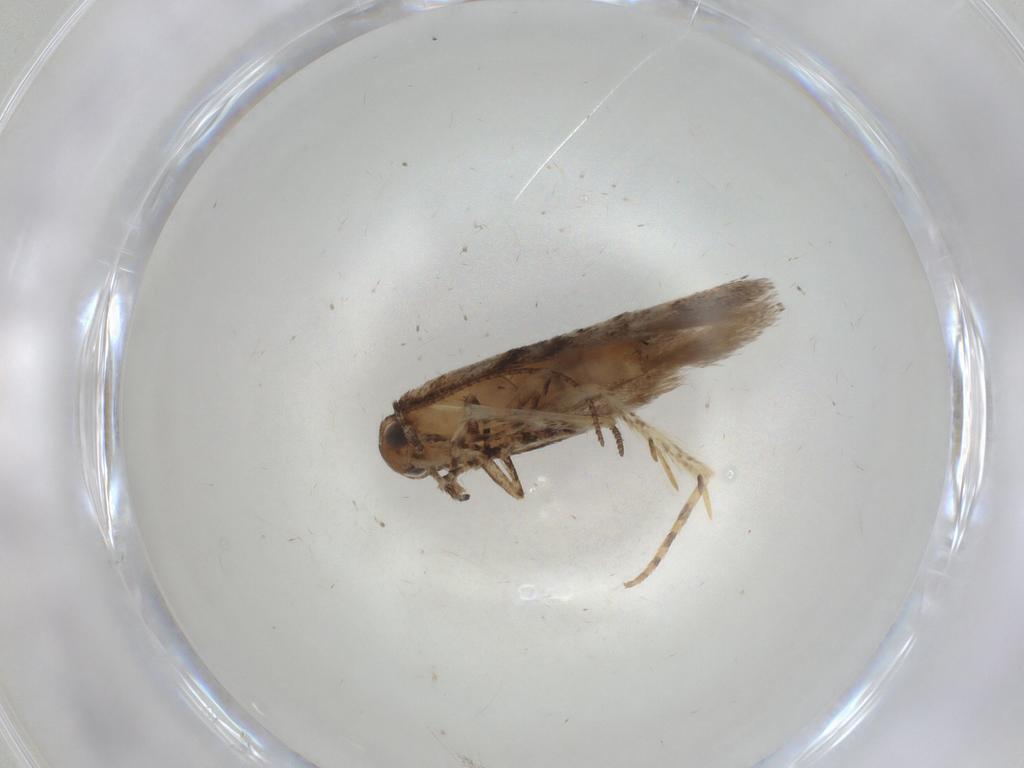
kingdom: Animalia
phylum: Arthropoda
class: Insecta
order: Lepidoptera
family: Gelechiidae
